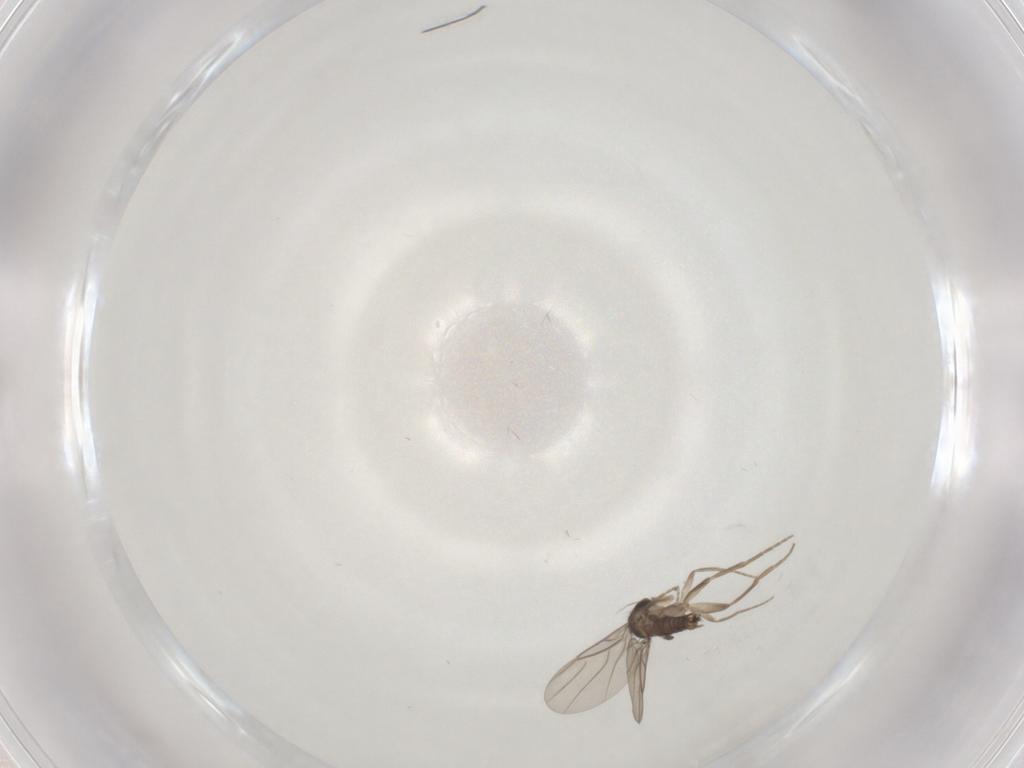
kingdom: Animalia
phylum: Arthropoda
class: Insecta
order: Diptera
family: Phoridae
